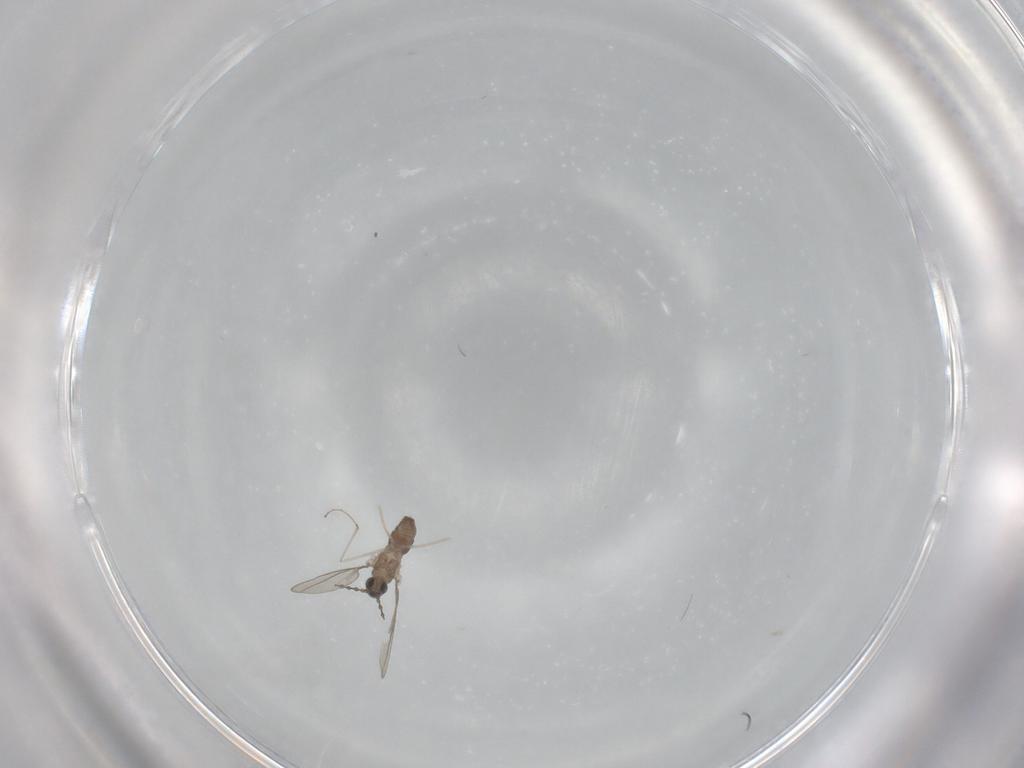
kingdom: Animalia
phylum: Arthropoda
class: Insecta
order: Diptera
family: Cecidomyiidae
